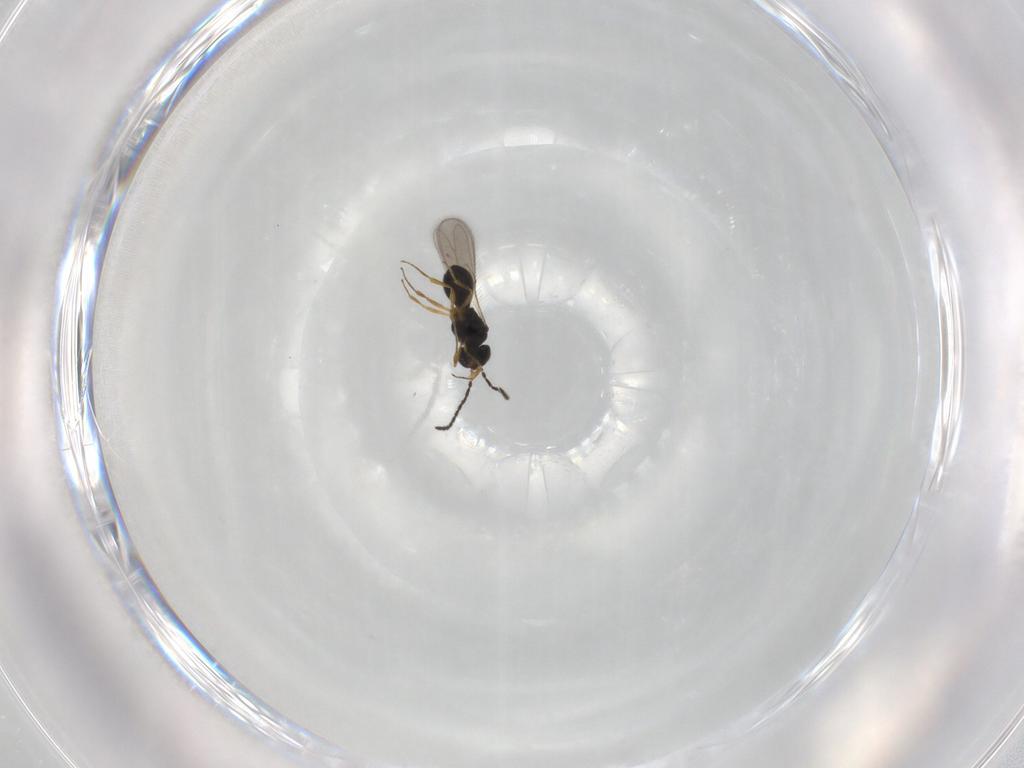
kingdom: Animalia
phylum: Arthropoda
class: Insecta
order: Hymenoptera
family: Scelionidae
